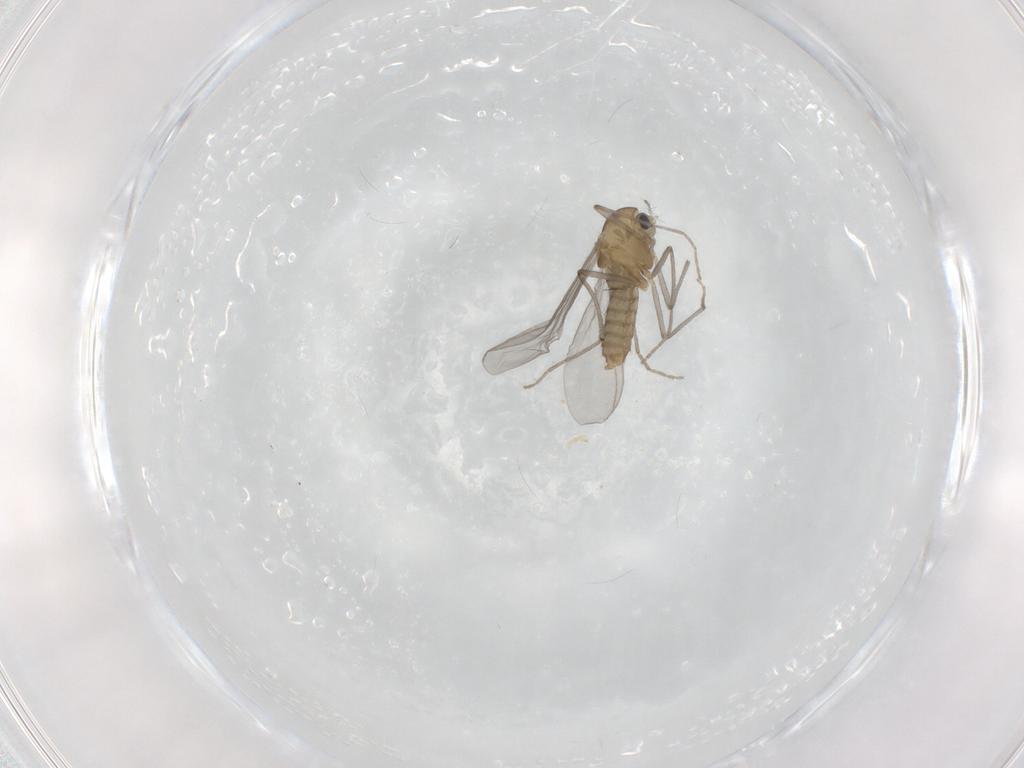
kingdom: Animalia
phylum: Arthropoda
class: Insecta
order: Diptera
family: Chironomidae
